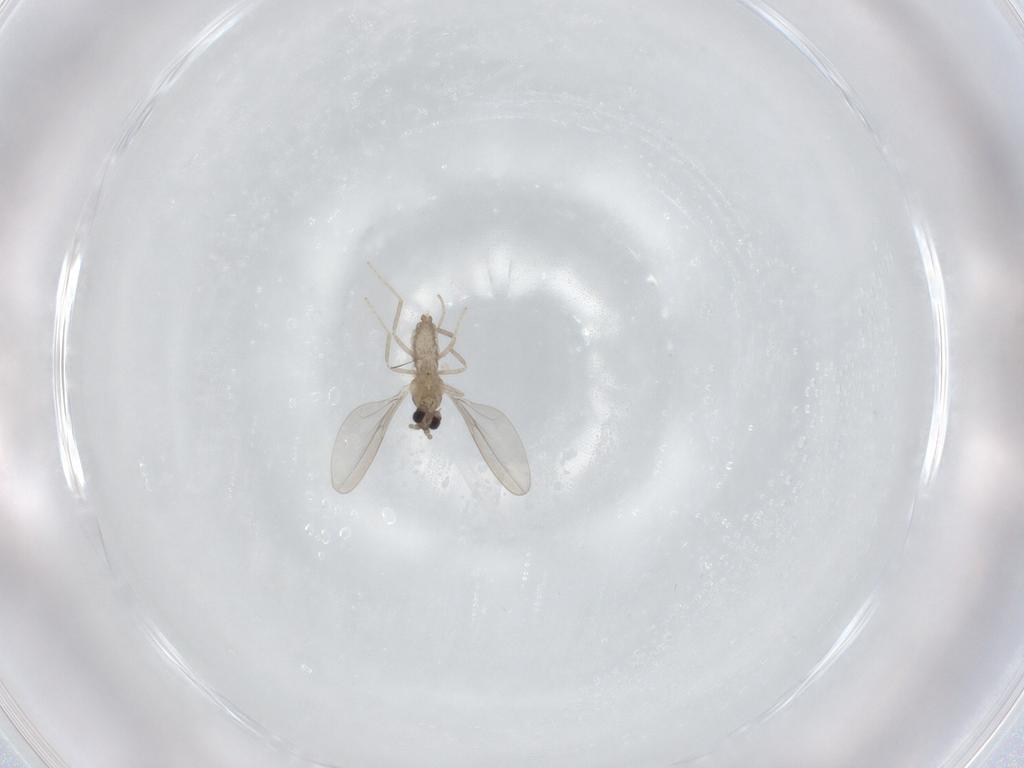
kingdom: Animalia
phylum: Arthropoda
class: Insecta
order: Diptera
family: Cecidomyiidae
